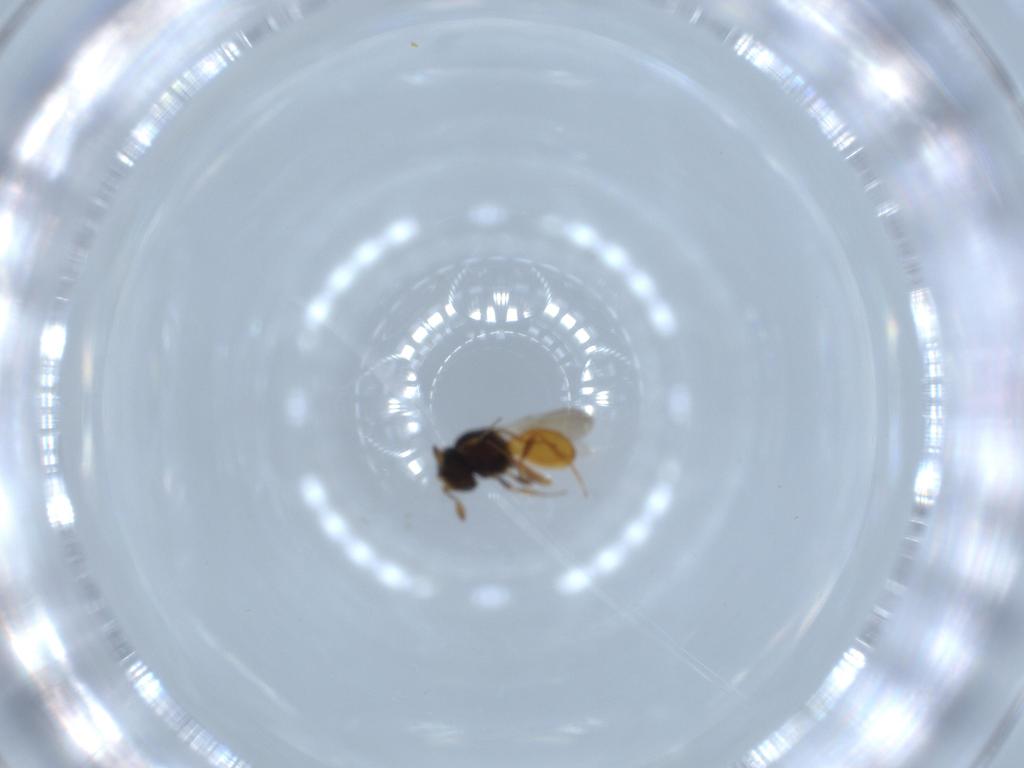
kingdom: Animalia
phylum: Arthropoda
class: Insecta
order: Hymenoptera
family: Scelionidae
